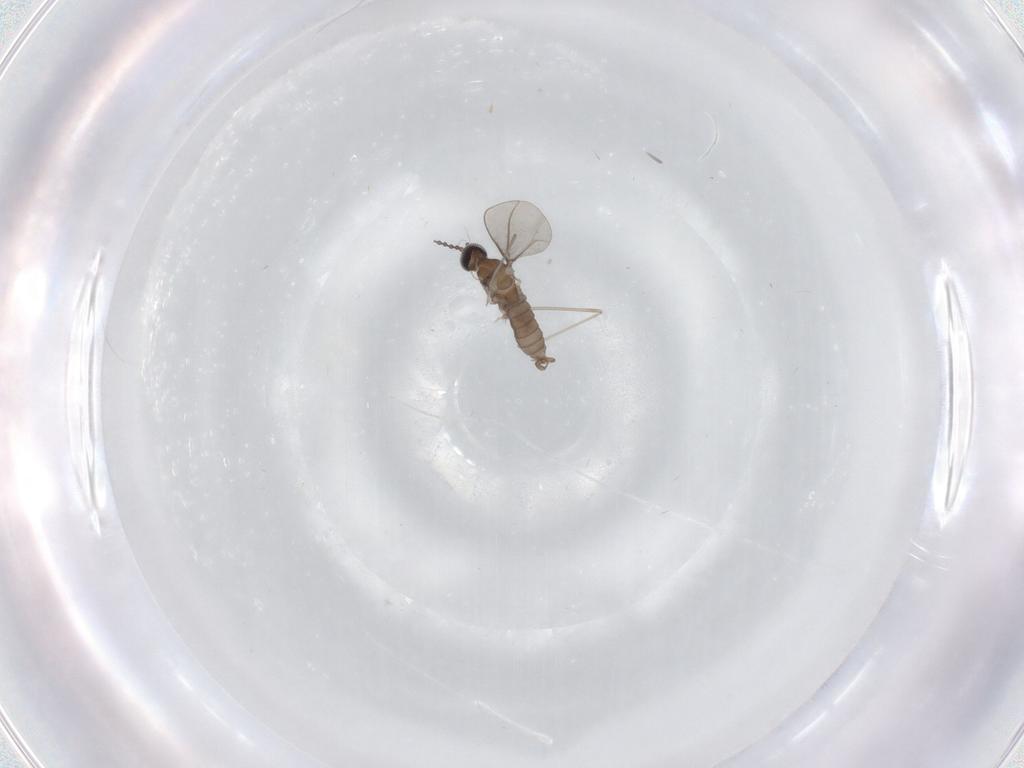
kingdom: Animalia
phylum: Arthropoda
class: Insecta
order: Diptera
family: Cecidomyiidae
